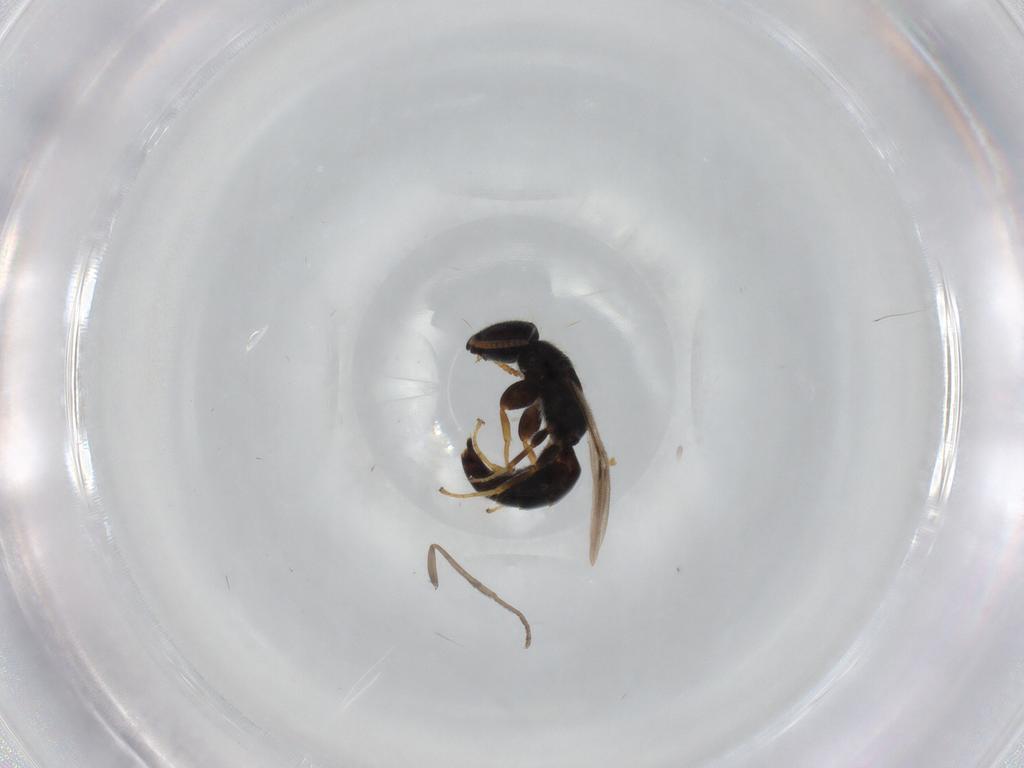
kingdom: Animalia
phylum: Arthropoda
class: Insecta
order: Hymenoptera
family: Bethylidae
